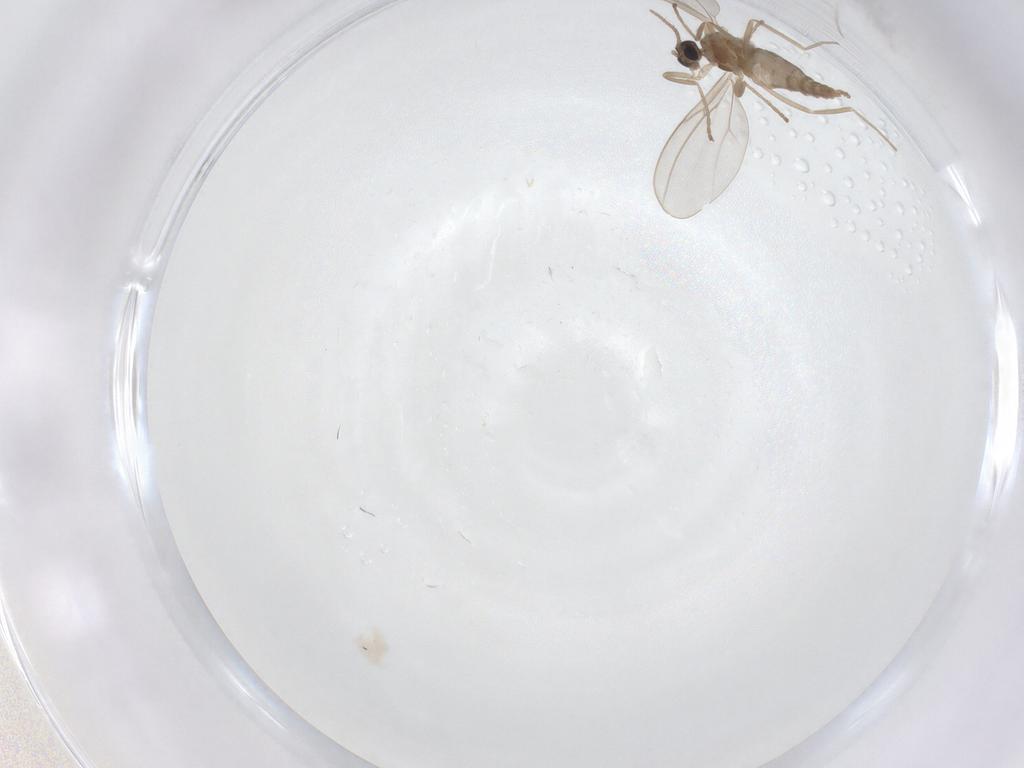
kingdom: Animalia
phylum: Arthropoda
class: Insecta
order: Diptera
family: Cecidomyiidae
